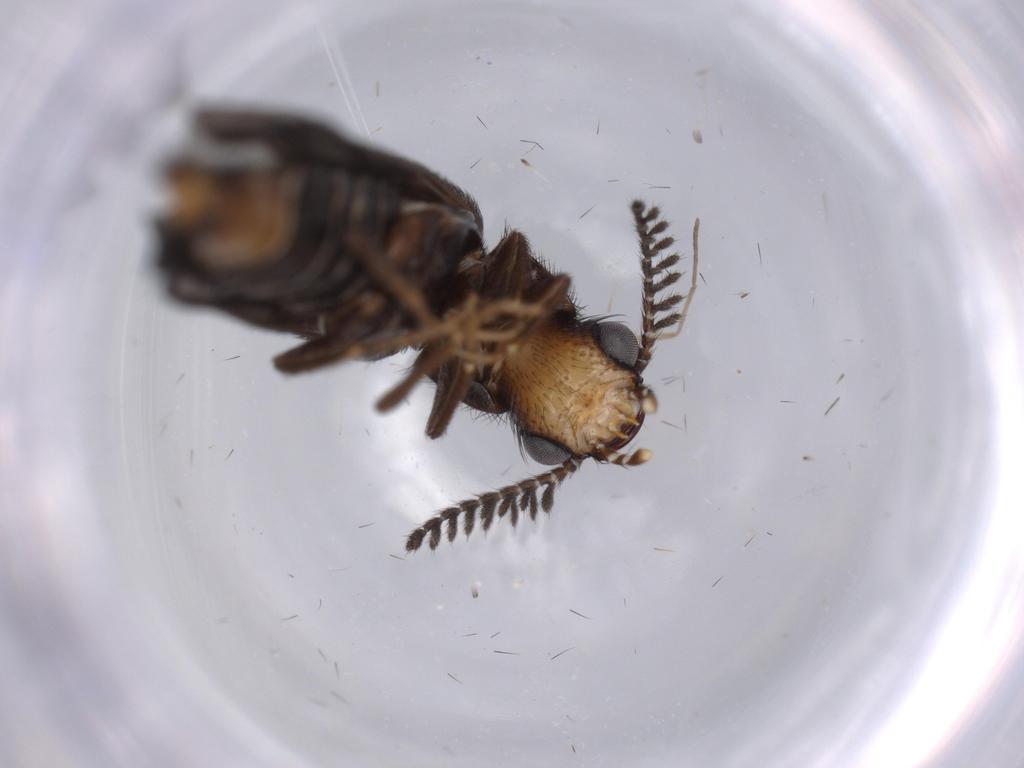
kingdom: Animalia
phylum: Arthropoda
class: Insecta
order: Coleoptera
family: Phengodidae
